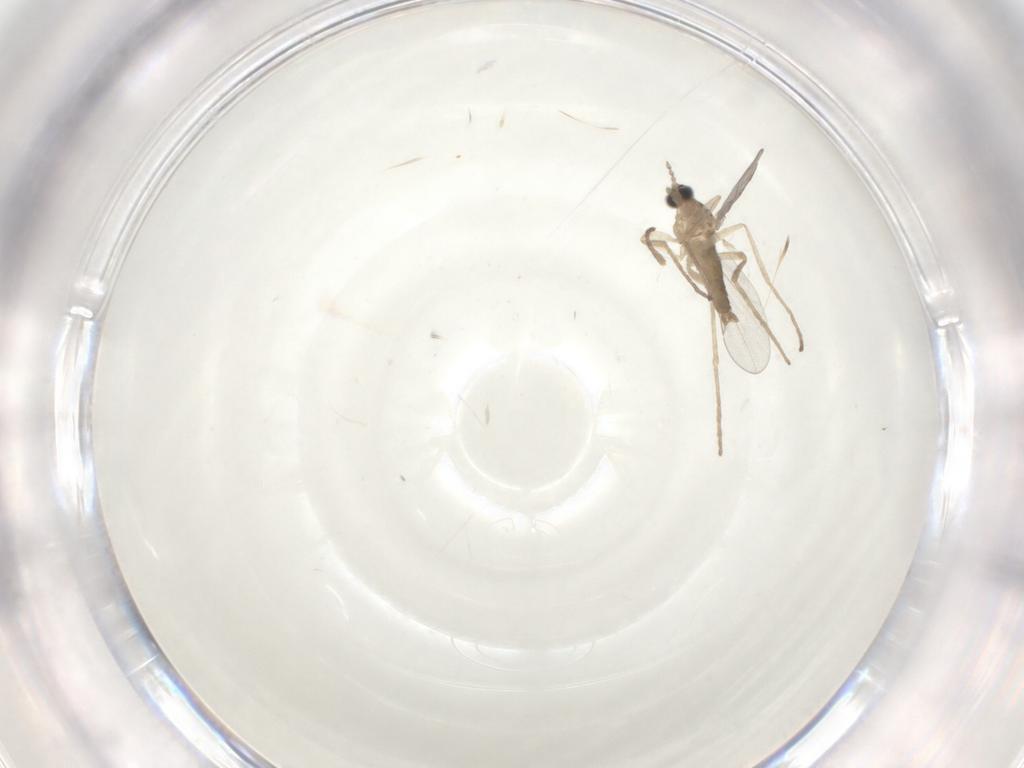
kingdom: Animalia
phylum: Arthropoda
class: Insecta
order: Diptera
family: Cecidomyiidae
